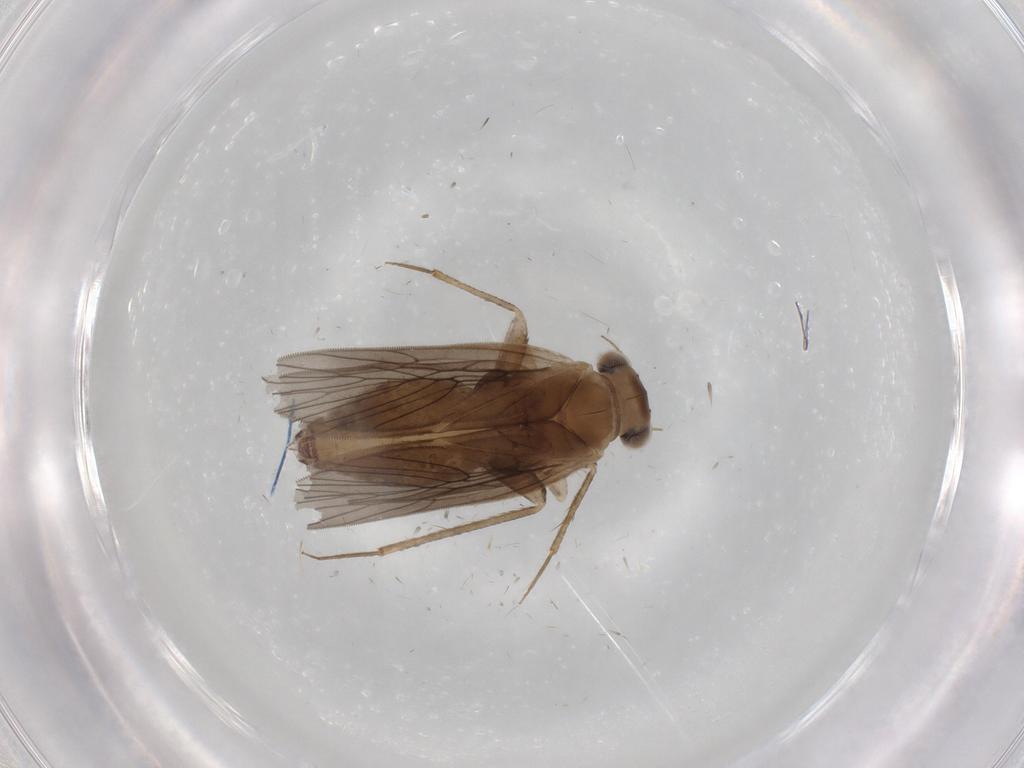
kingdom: Animalia
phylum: Arthropoda
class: Insecta
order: Psocodea
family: Lepidopsocidae
